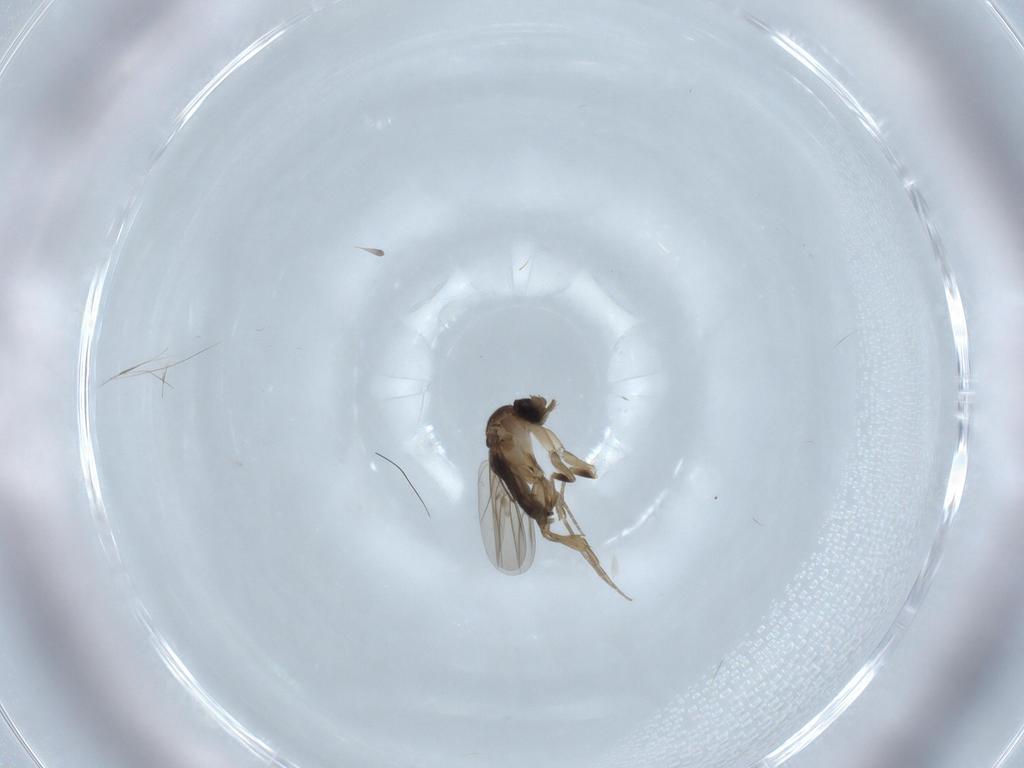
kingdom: Animalia
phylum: Arthropoda
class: Insecta
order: Diptera
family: Phoridae
